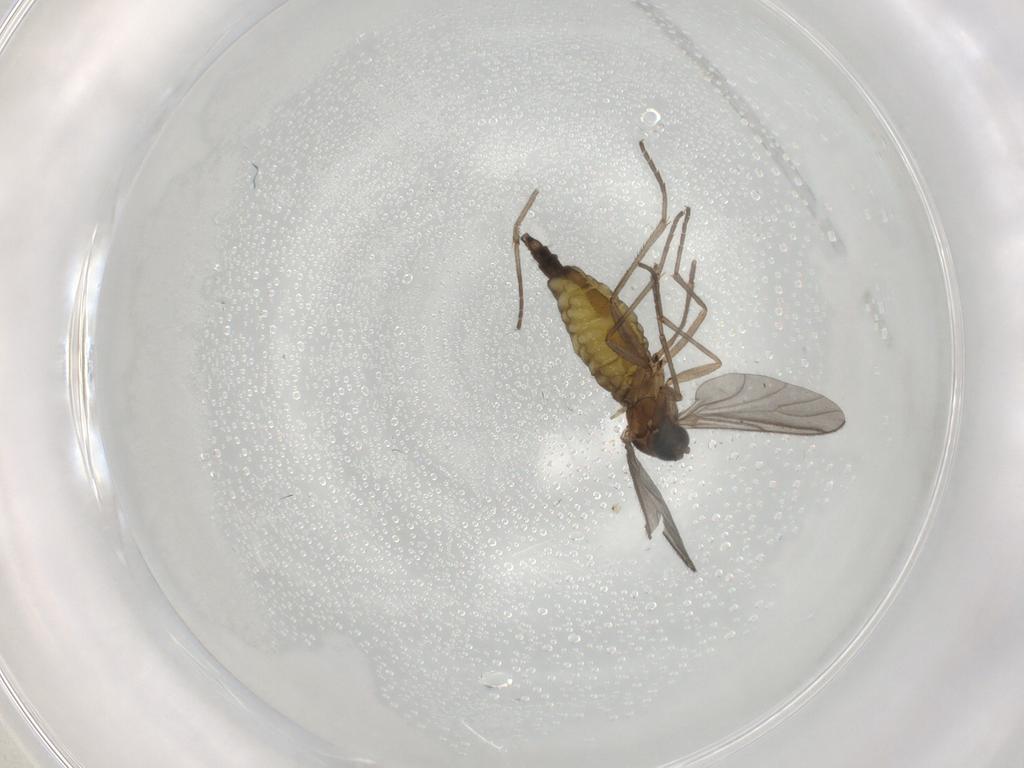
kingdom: Animalia
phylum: Arthropoda
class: Insecta
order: Diptera
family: Sciaridae
